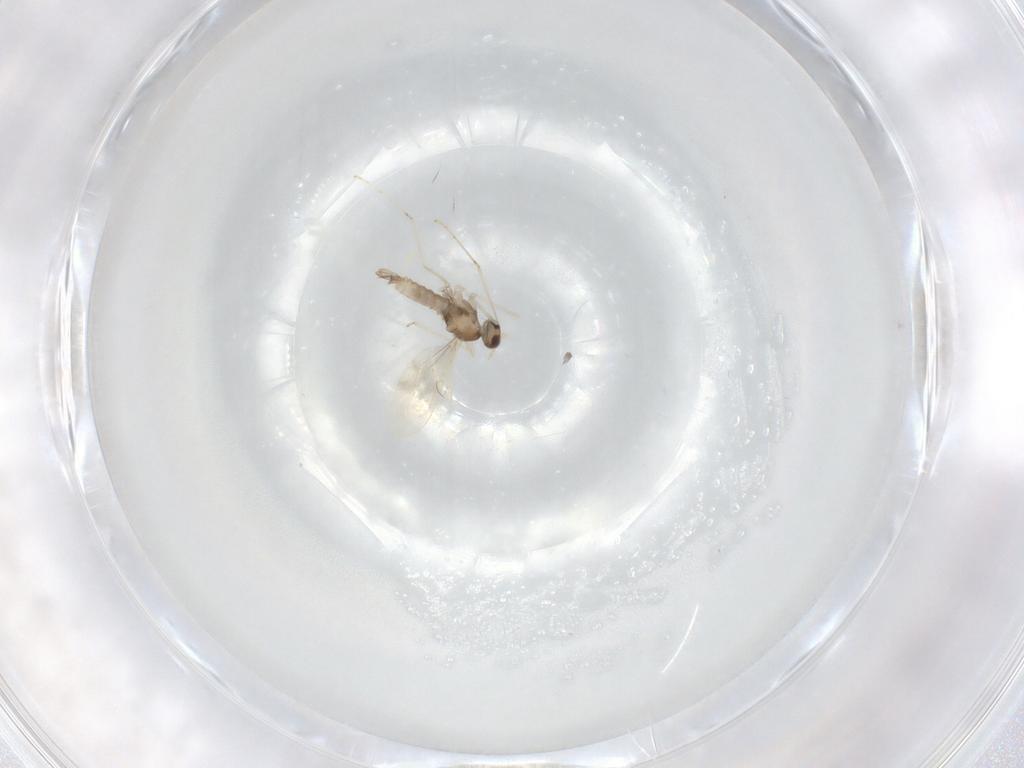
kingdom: Animalia
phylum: Arthropoda
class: Insecta
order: Diptera
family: Cecidomyiidae
